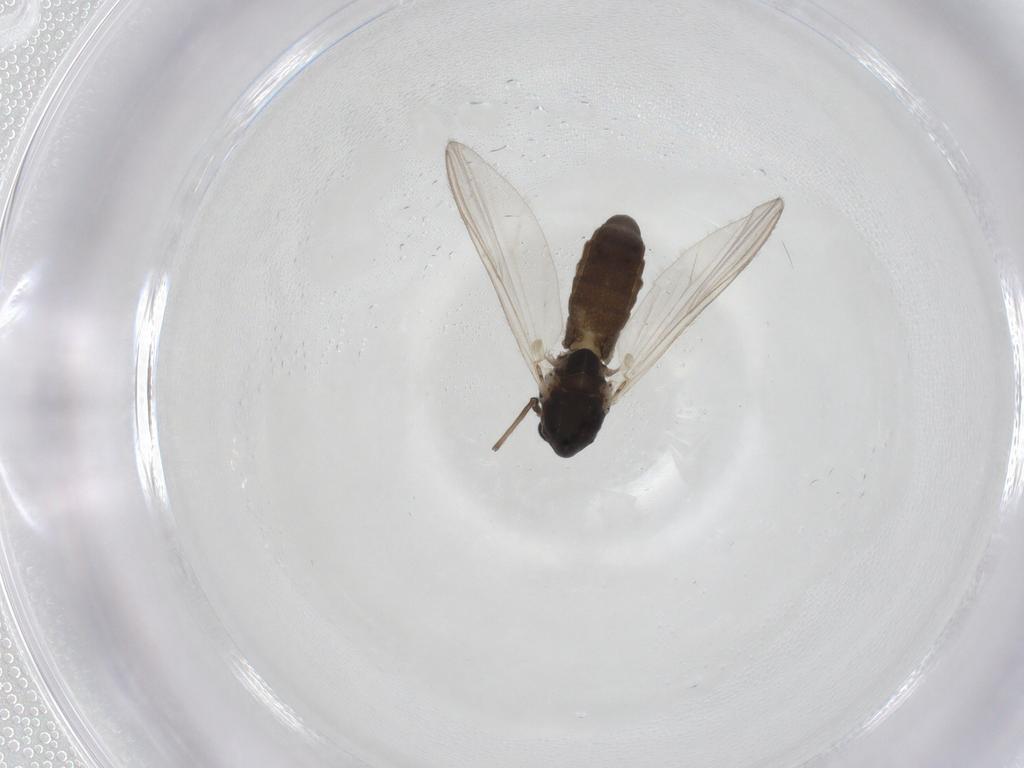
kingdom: Animalia
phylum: Arthropoda
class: Insecta
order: Diptera
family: Chironomidae
